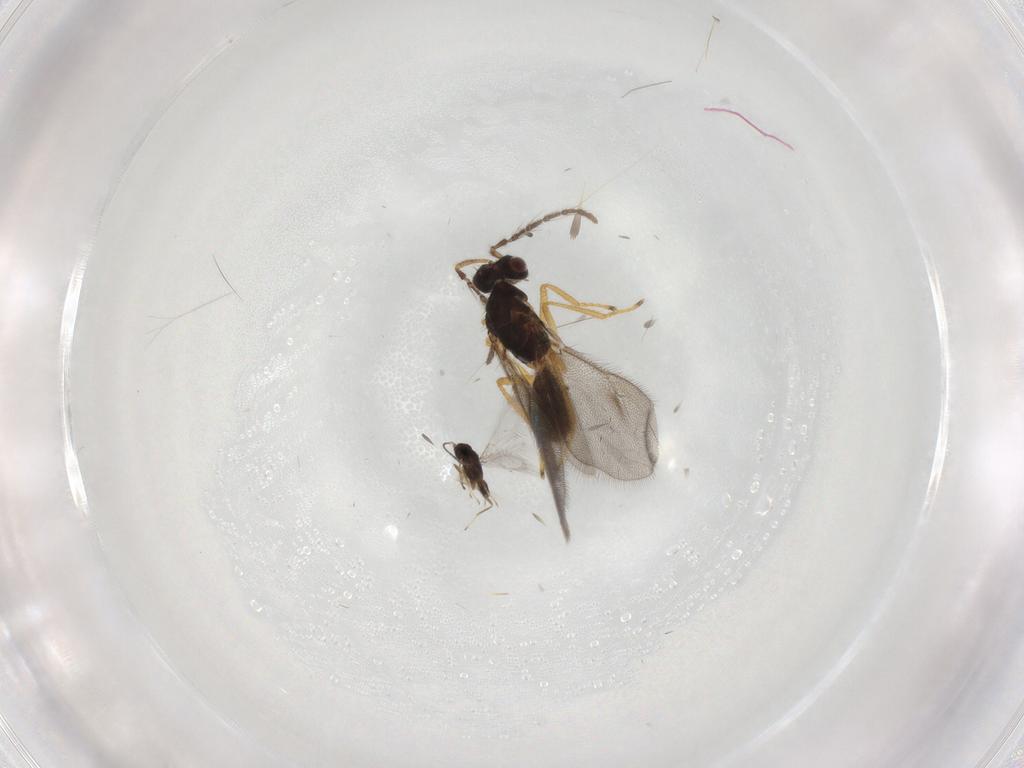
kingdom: Animalia
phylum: Arthropoda
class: Insecta
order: Hymenoptera
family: Eulophidae
